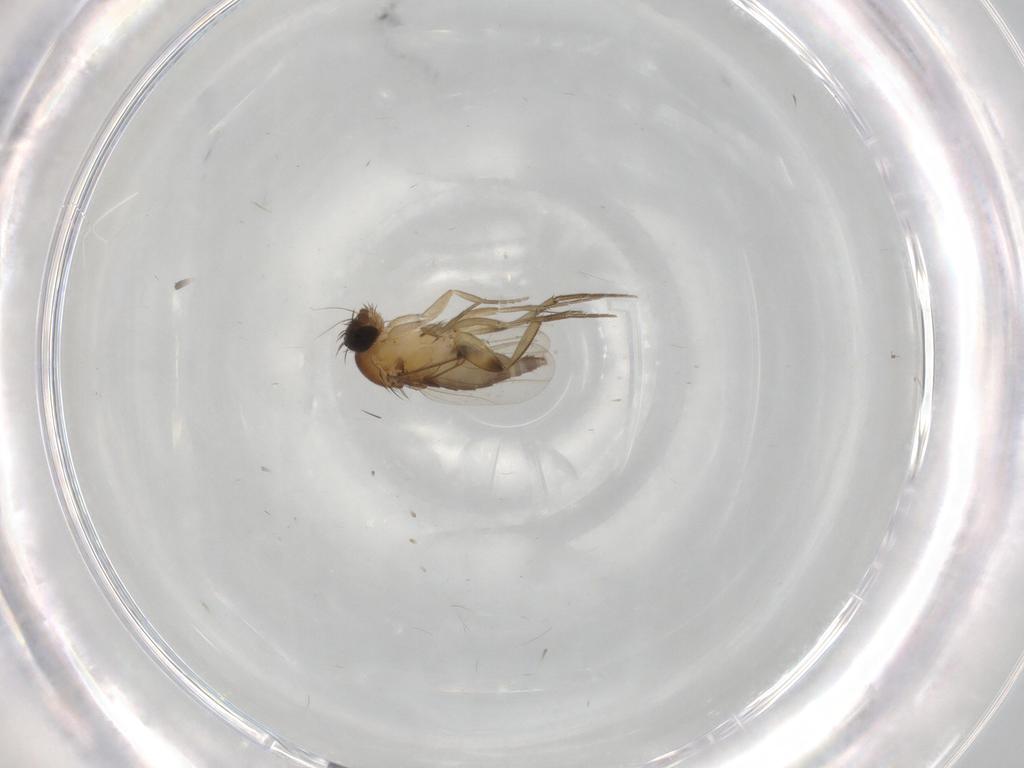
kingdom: Animalia
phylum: Arthropoda
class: Insecta
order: Diptera
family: Phoridae
